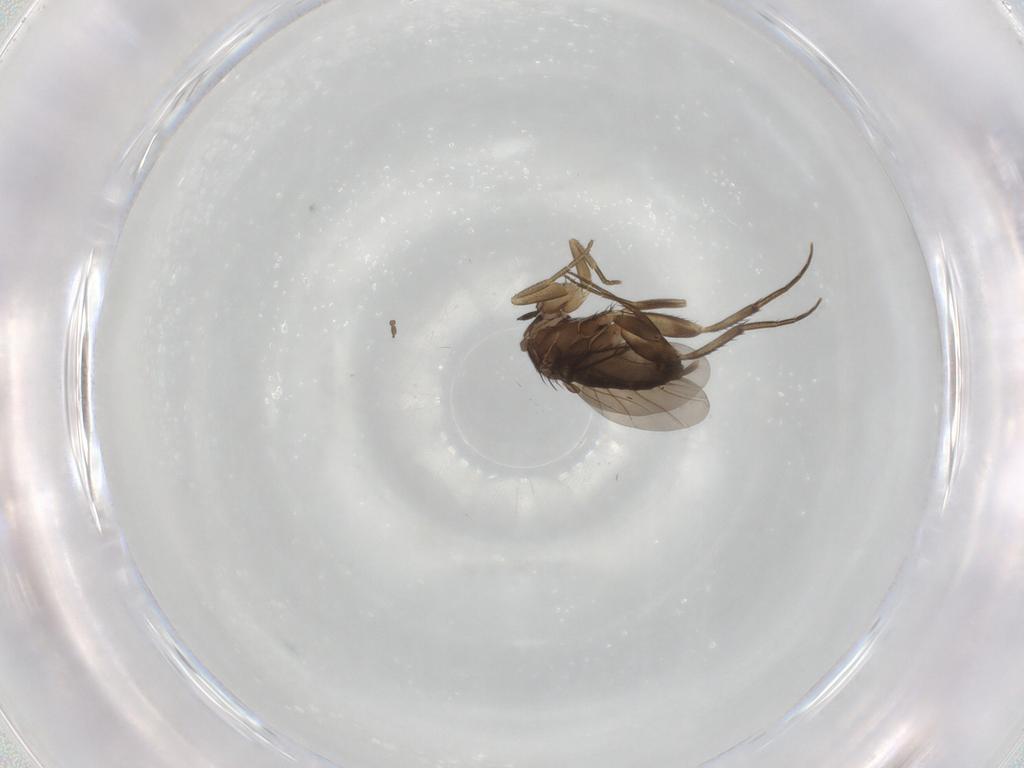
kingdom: Animalia
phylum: Arthropoda
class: Insecta
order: Diptera
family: Phoridae
